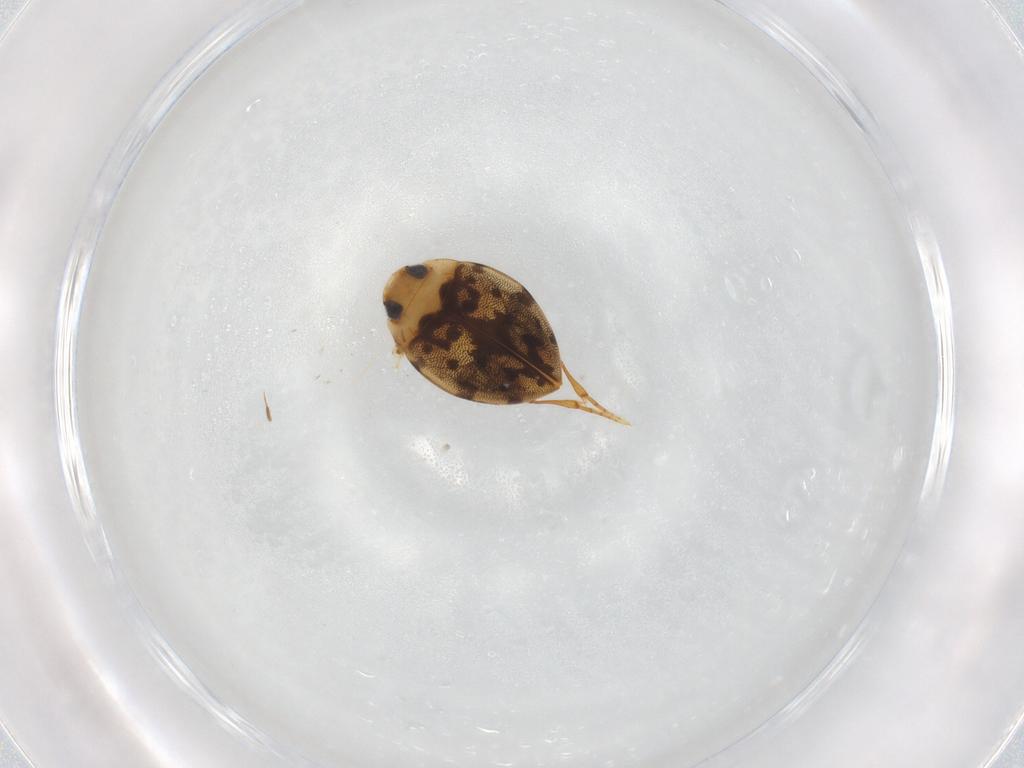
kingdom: Animalia
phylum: Arthropoda
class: Insecta
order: Coleoptera
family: Dytiscidae
